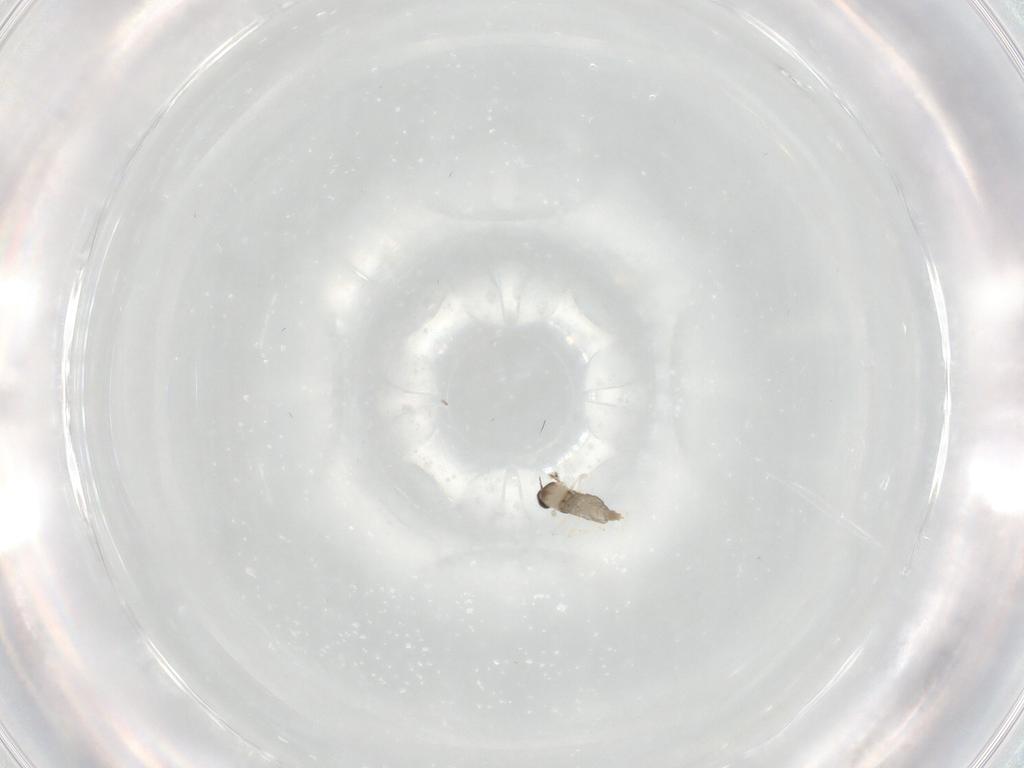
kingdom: Animalia
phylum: Arthropoda
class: Insecta
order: Diptera
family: Cecidomyiidae
